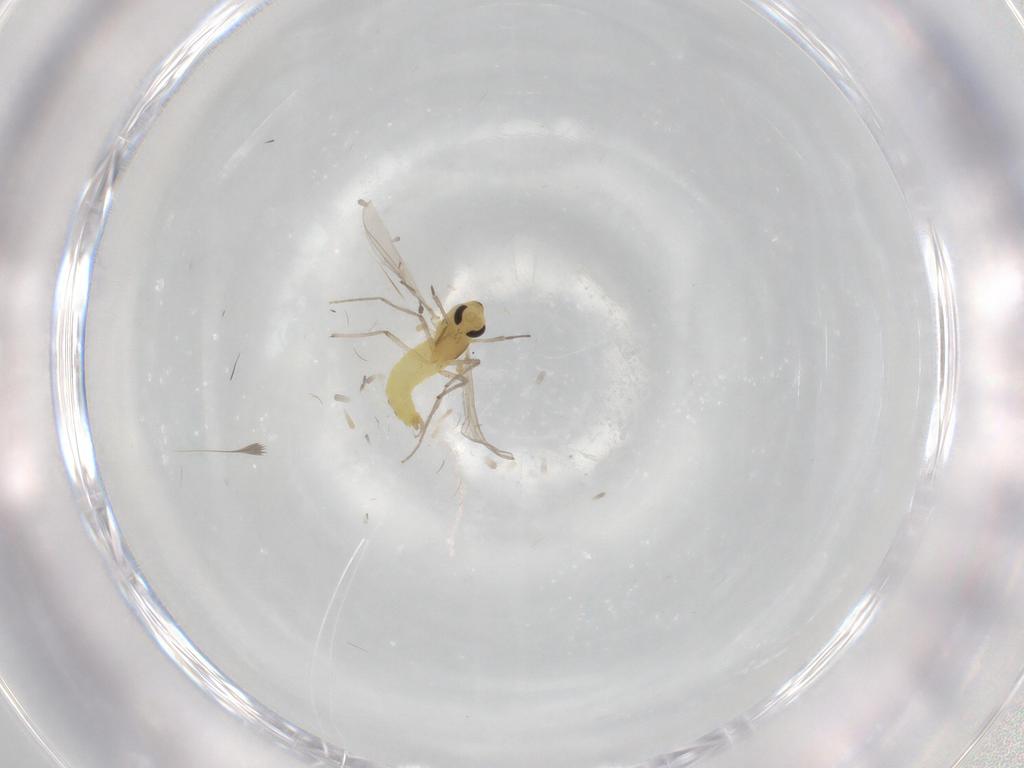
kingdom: Animalia
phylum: Arthropoda
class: Insecta
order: Diptera
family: Chironomidae
